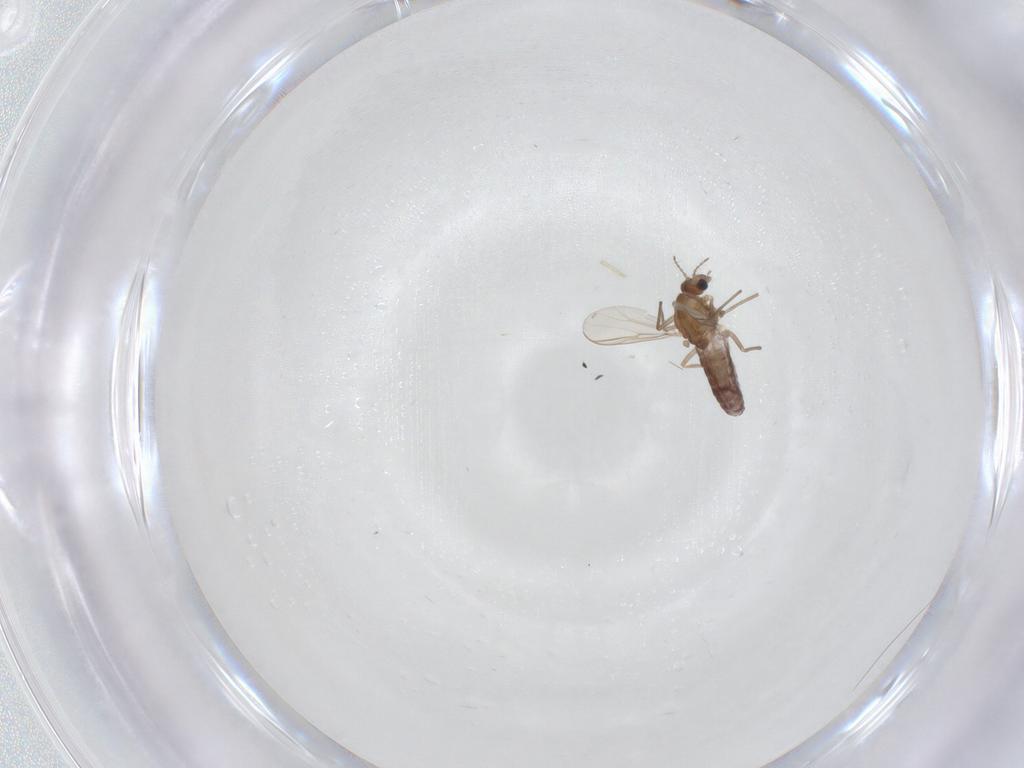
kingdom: Animalia
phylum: Arthropoda
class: Insecta
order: Diptera
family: Chironomidae
